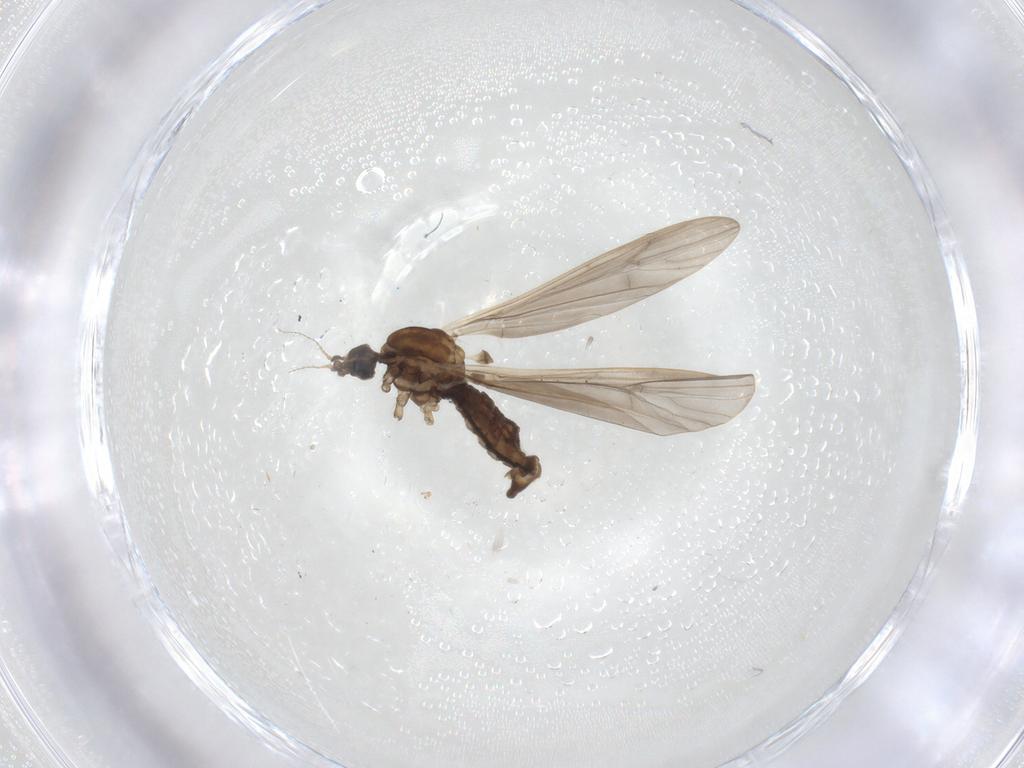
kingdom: Animalia
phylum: Arthropoda
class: Insecta
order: Diptera
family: Limoniidae
